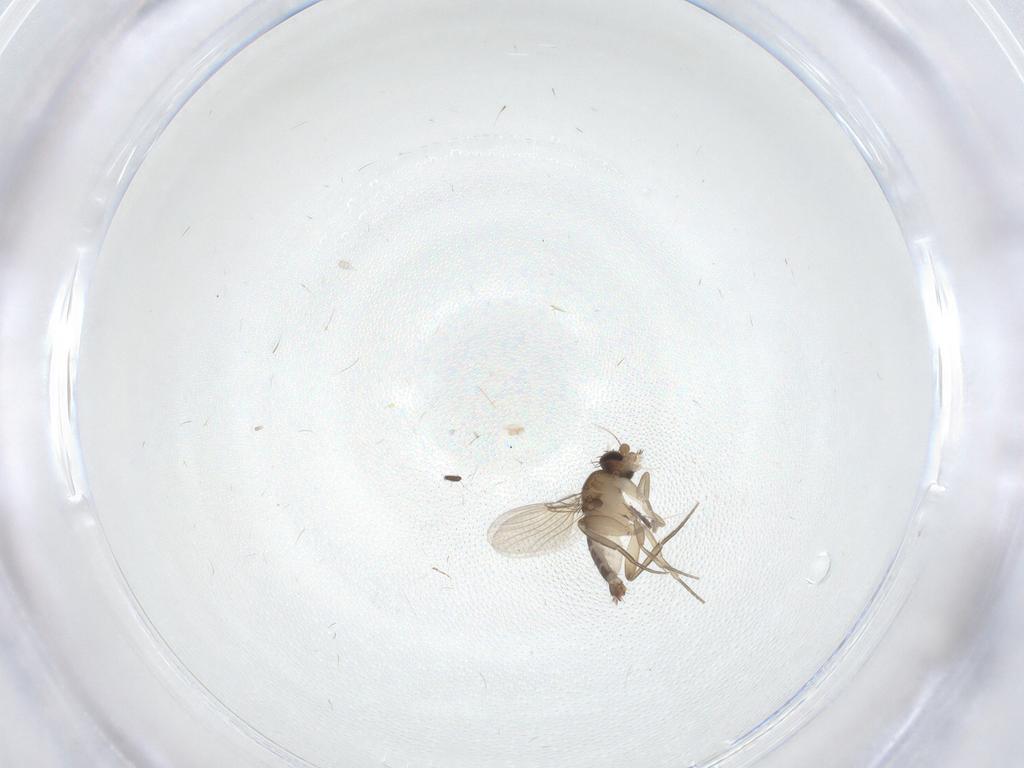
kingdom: Animalia
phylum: Arthropoda
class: Insecta
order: Diptera
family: Phoridae
